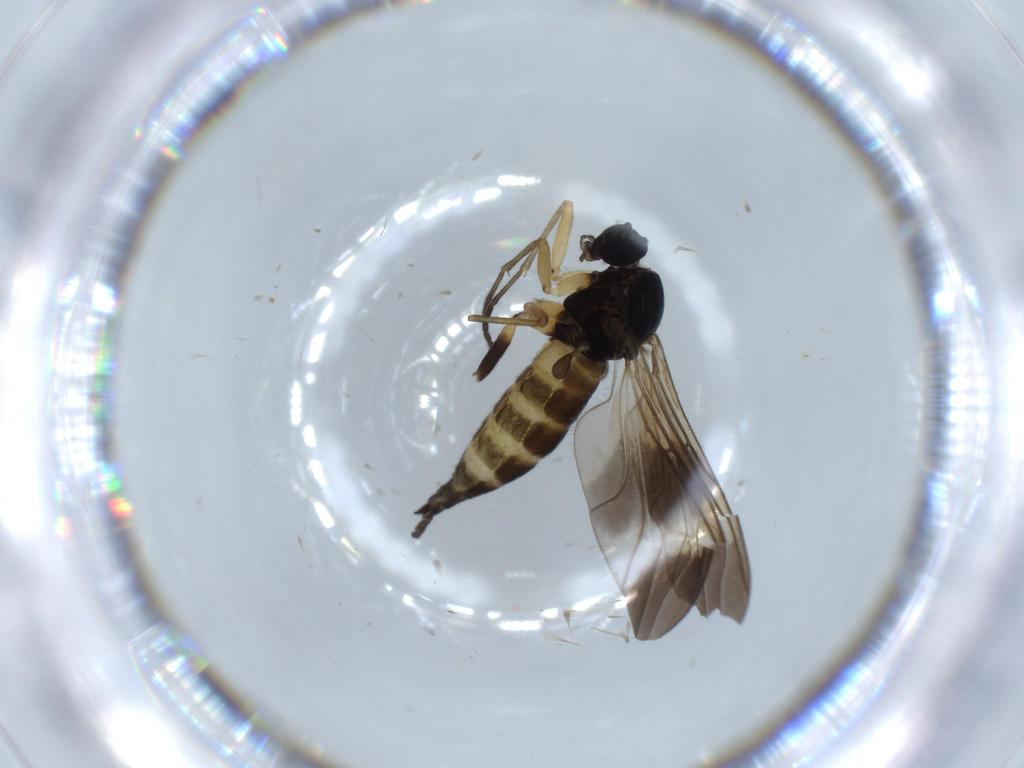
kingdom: Animalia
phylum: Arthropoda
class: Insecta
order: Diptera
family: Sciaridae
